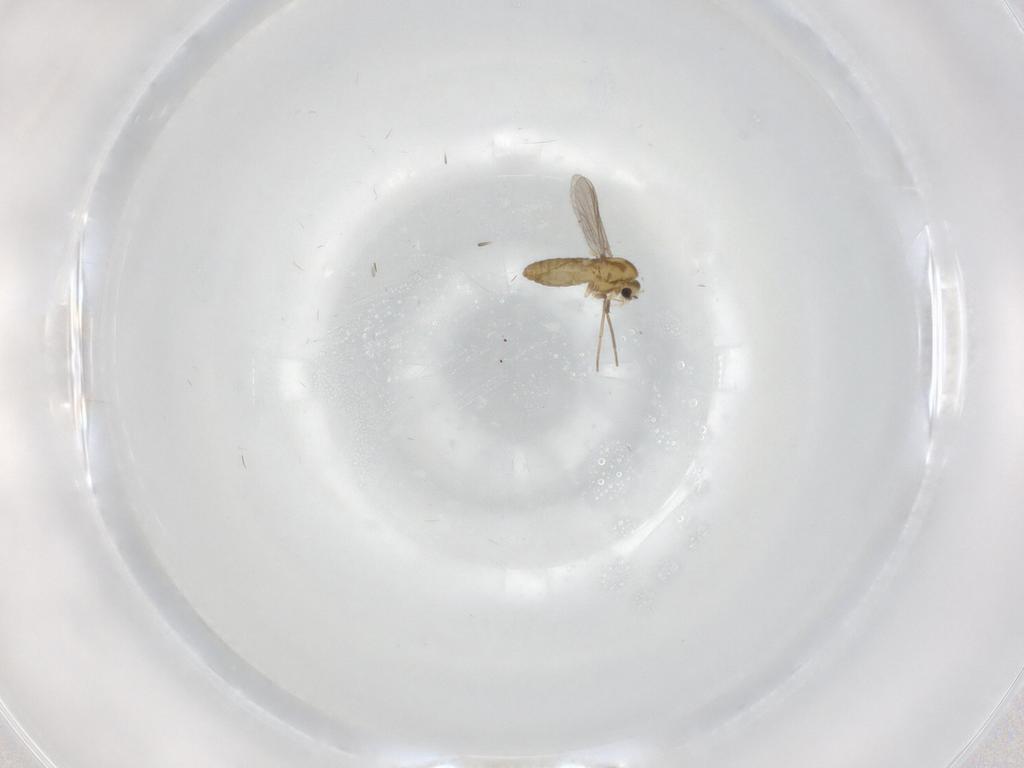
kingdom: Animalia
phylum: Arthropoda
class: Insecta
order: Diptera
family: Chironomidae
